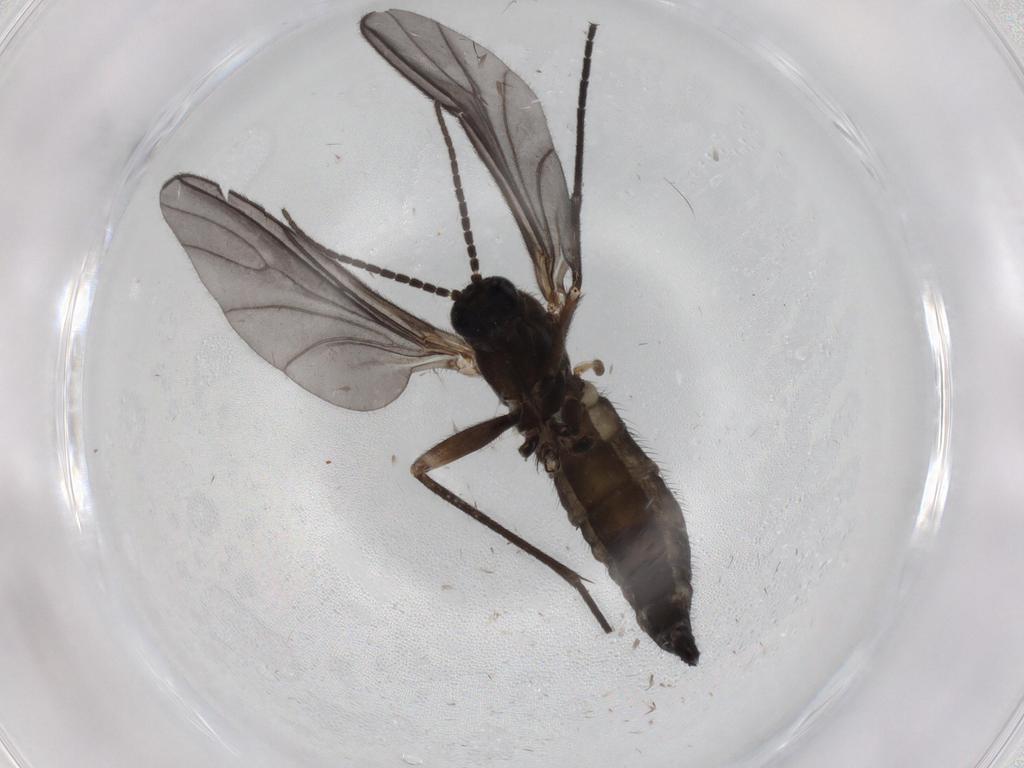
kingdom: Animalia
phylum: Arthropoda
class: Insecta
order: Diptera
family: Sciaridae
